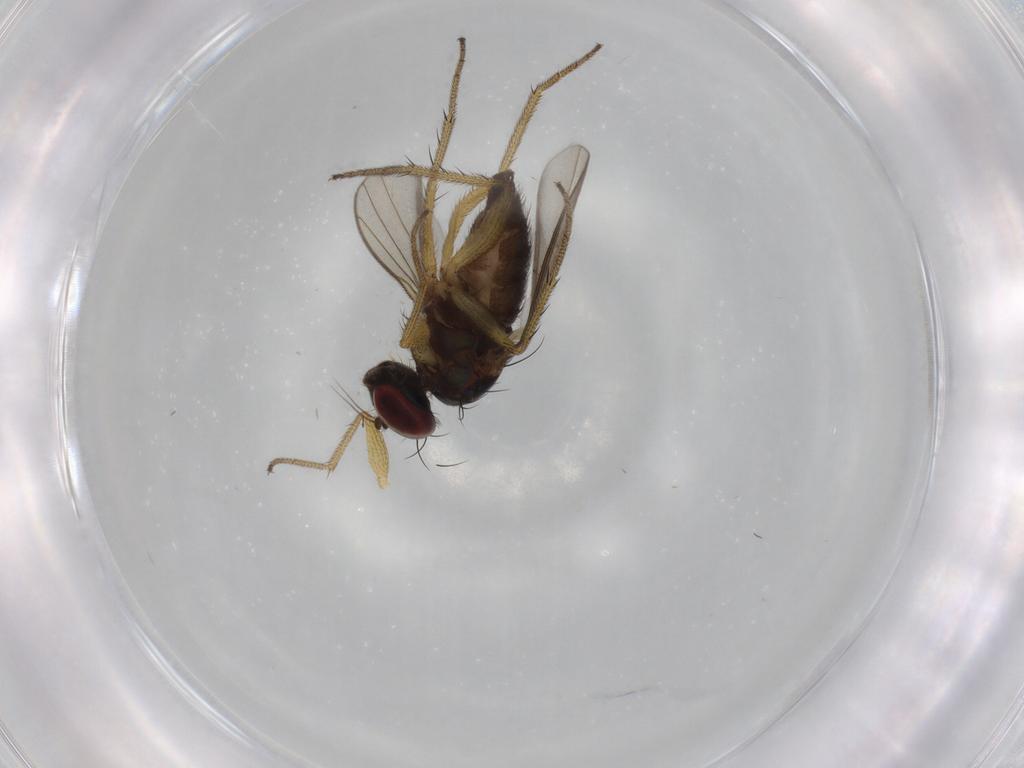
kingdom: Animalia
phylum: Arthropoda
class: Insecta
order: Diptera
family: Dolichopodidae
